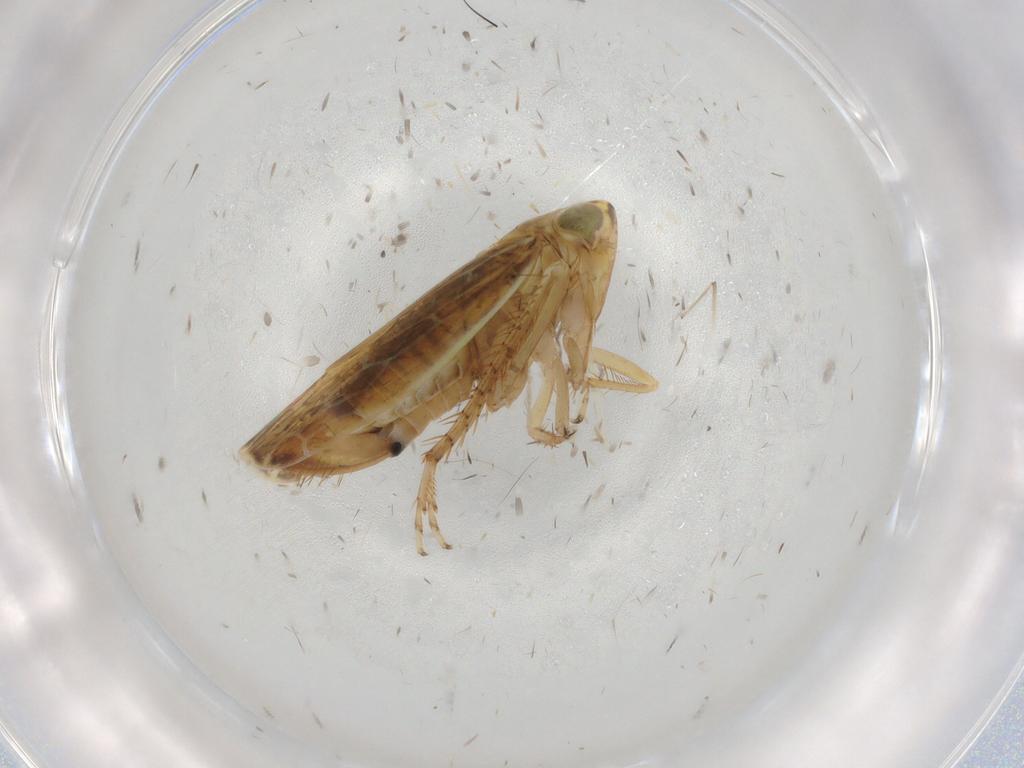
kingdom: Animalia
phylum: Arthropoda
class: Insecta
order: Hemiptera
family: Cicadellidae
